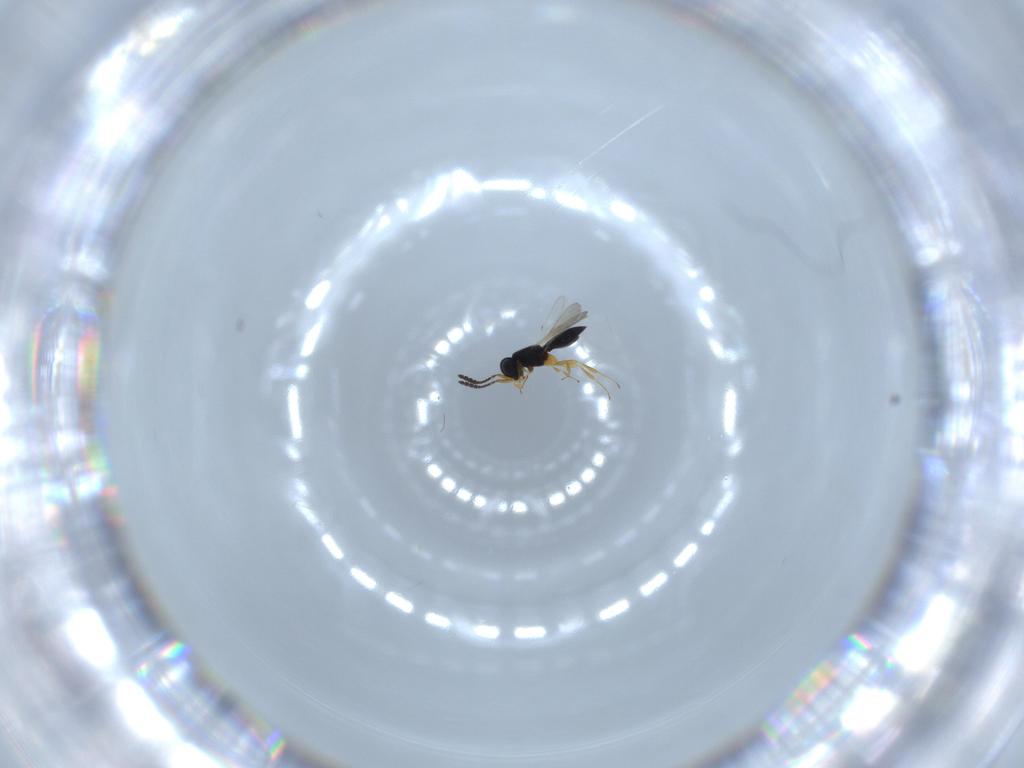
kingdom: Animalia
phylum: Arthropoda
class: Insecta
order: Hymenoptera
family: Scelionidae
